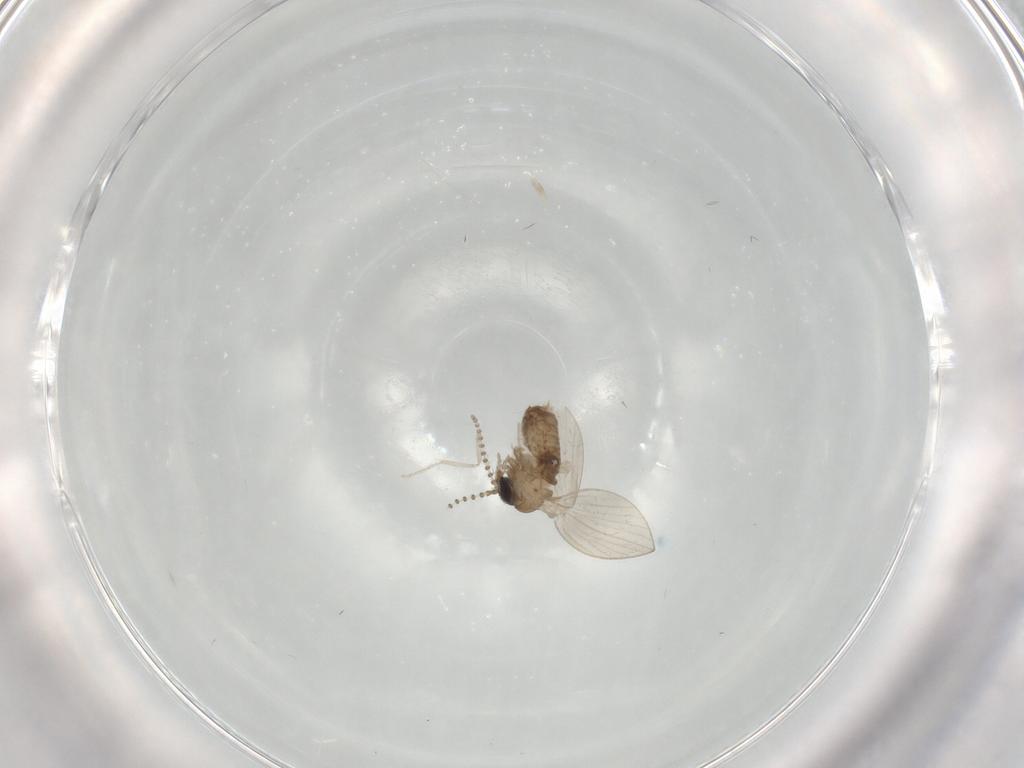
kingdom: Animalia
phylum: Arthropoda
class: Insecta
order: Diptera
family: Psychodidae
